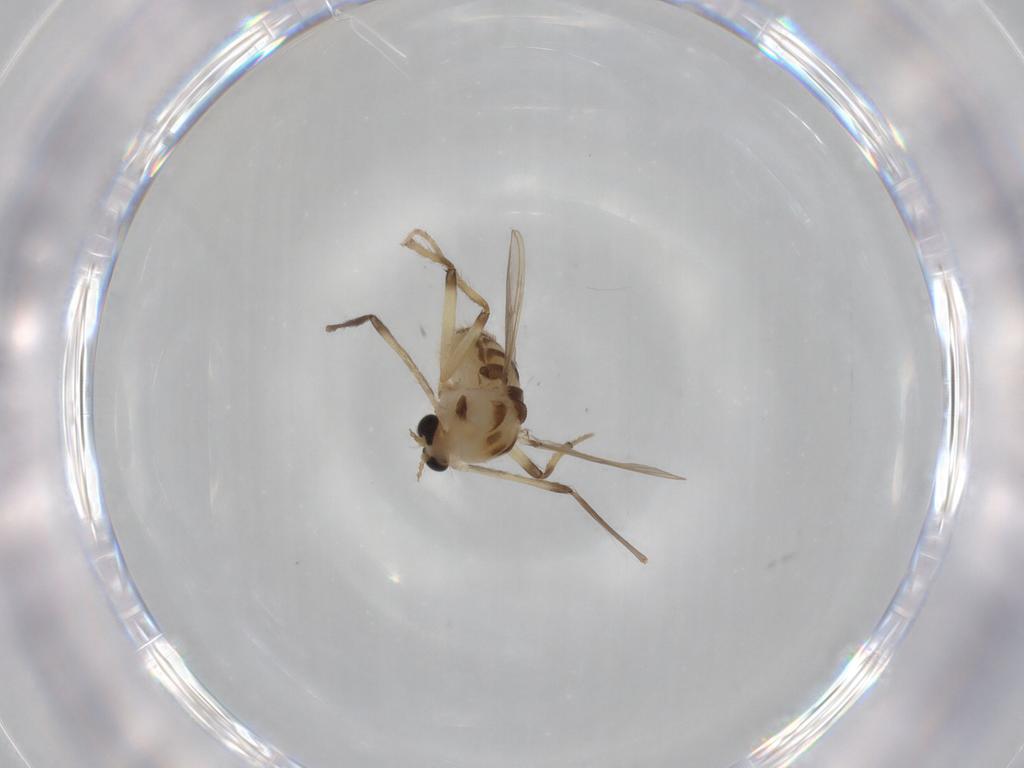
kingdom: Animalia
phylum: Arthropoda
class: Insecta
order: Diptera
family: Chironomidae
